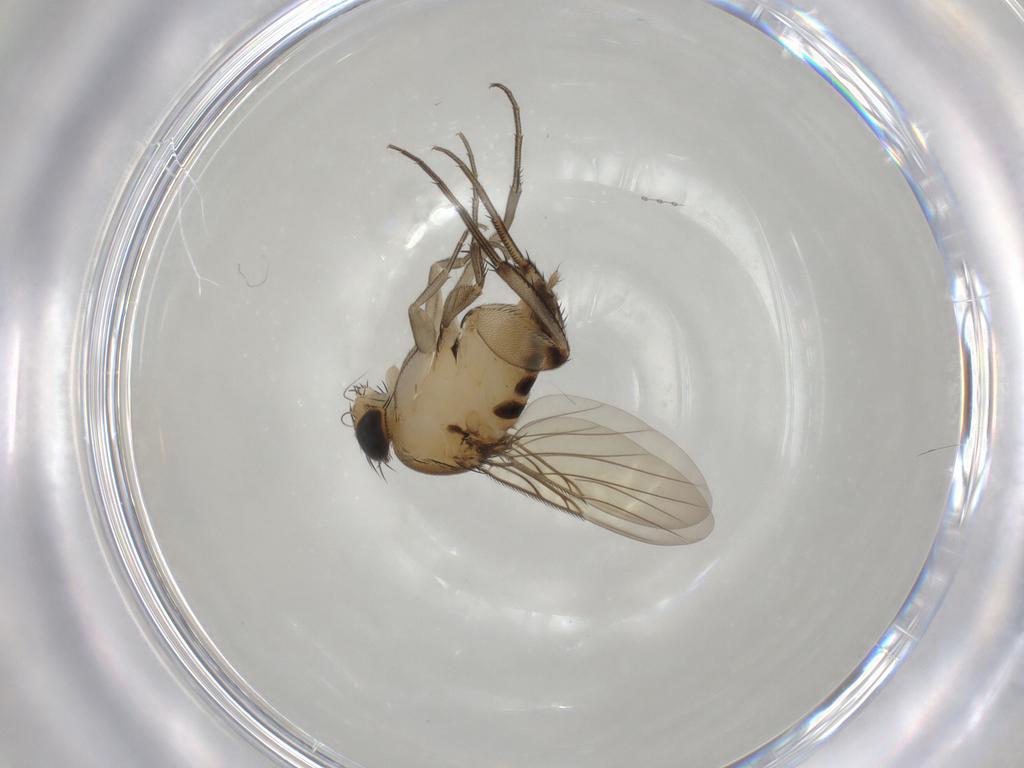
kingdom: Animalia
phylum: Arthropoda
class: Insecta
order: Diptera
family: Phoridae
